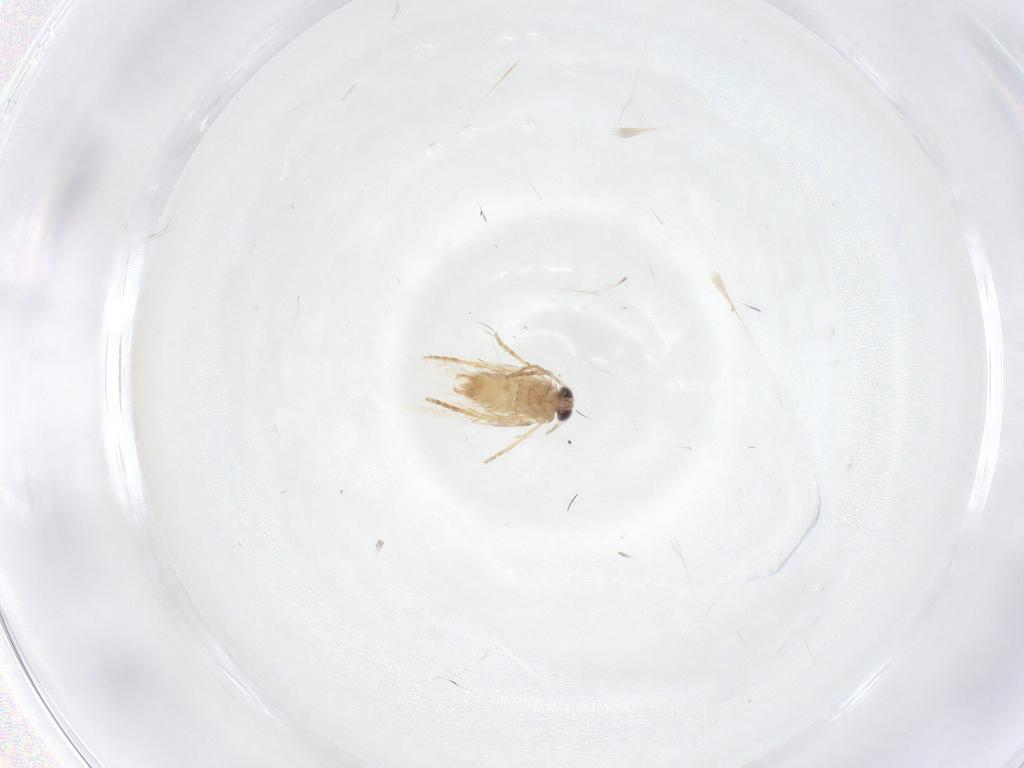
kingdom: Animalia
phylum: Arthropoda
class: Insecta
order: Lepidoptera
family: Nepticulidae
